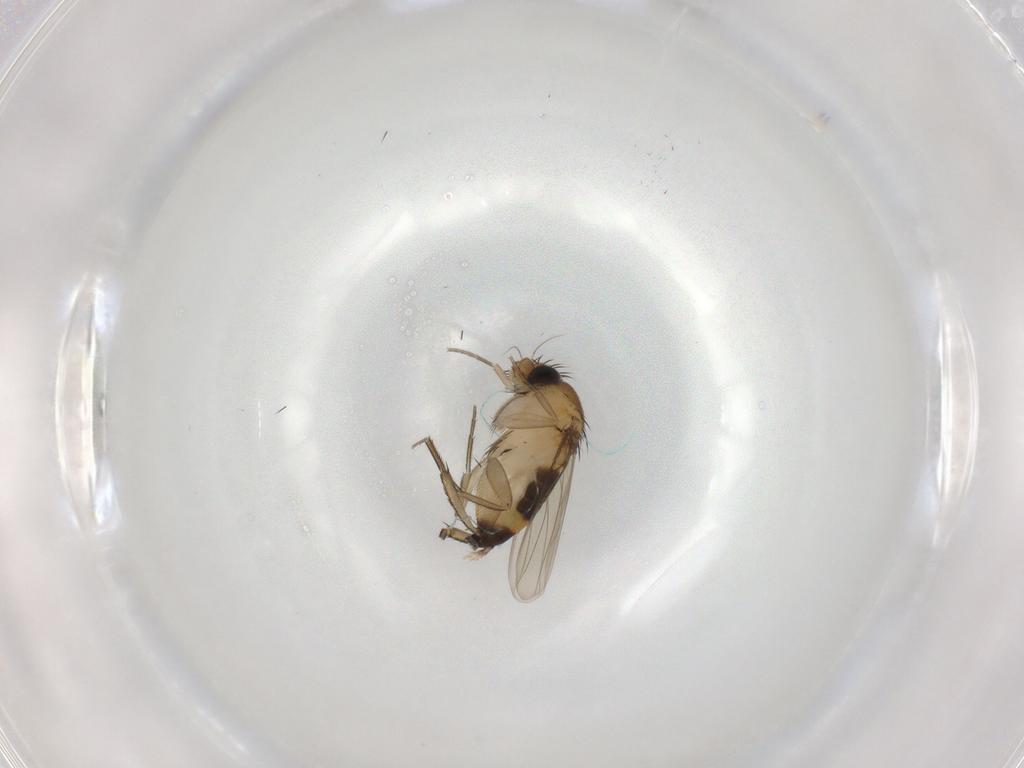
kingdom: Animalia
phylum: Arthropoda
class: Insecta
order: Diptera
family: Phoridae
